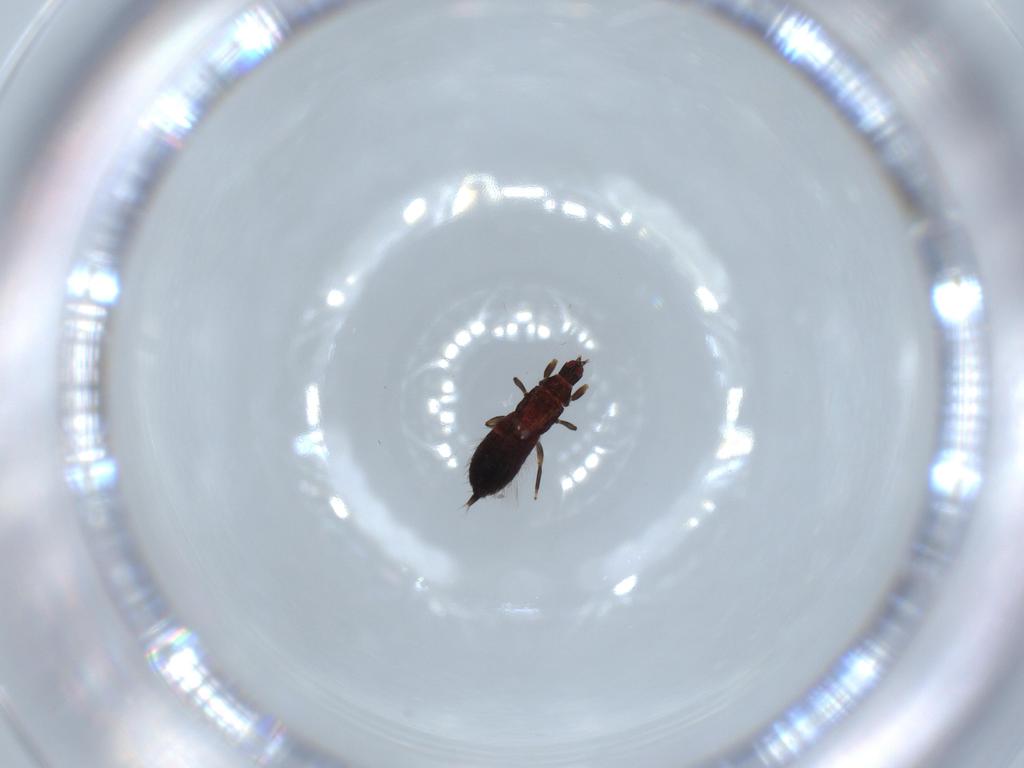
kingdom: Animalia
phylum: Arthropoda
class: Insecta
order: Thysanoptera
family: Phlaeothripidae
